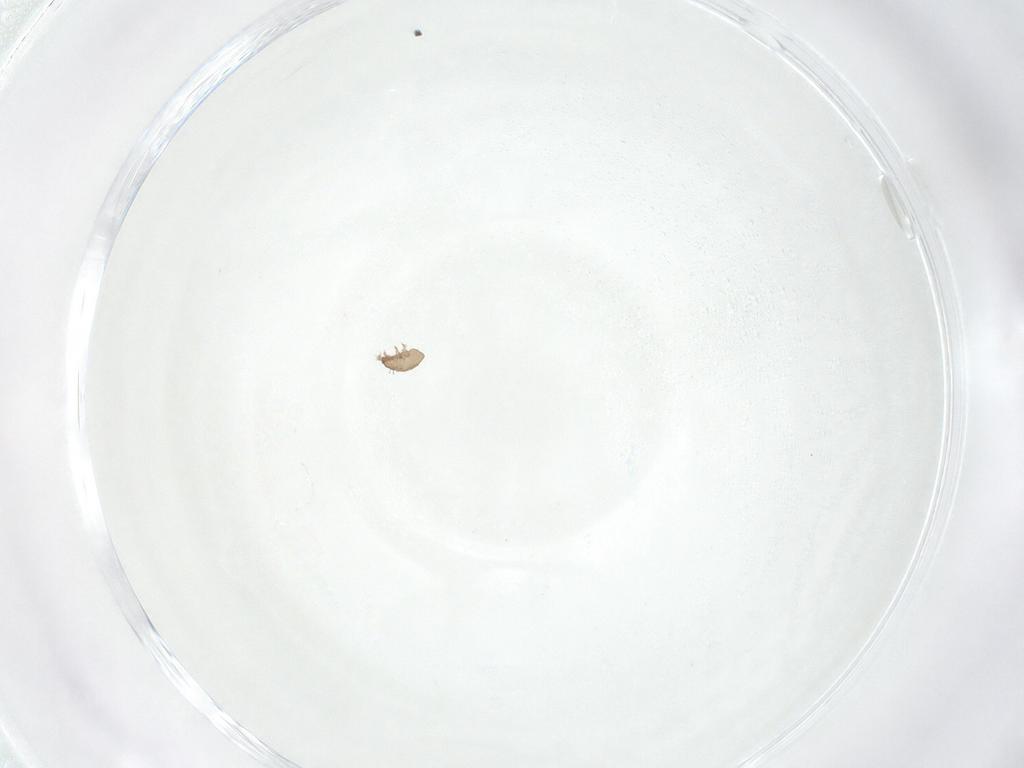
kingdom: Animalia
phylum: Arthropoda
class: Arachnida
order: Sarcoptiformes
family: Tectocepheidae
